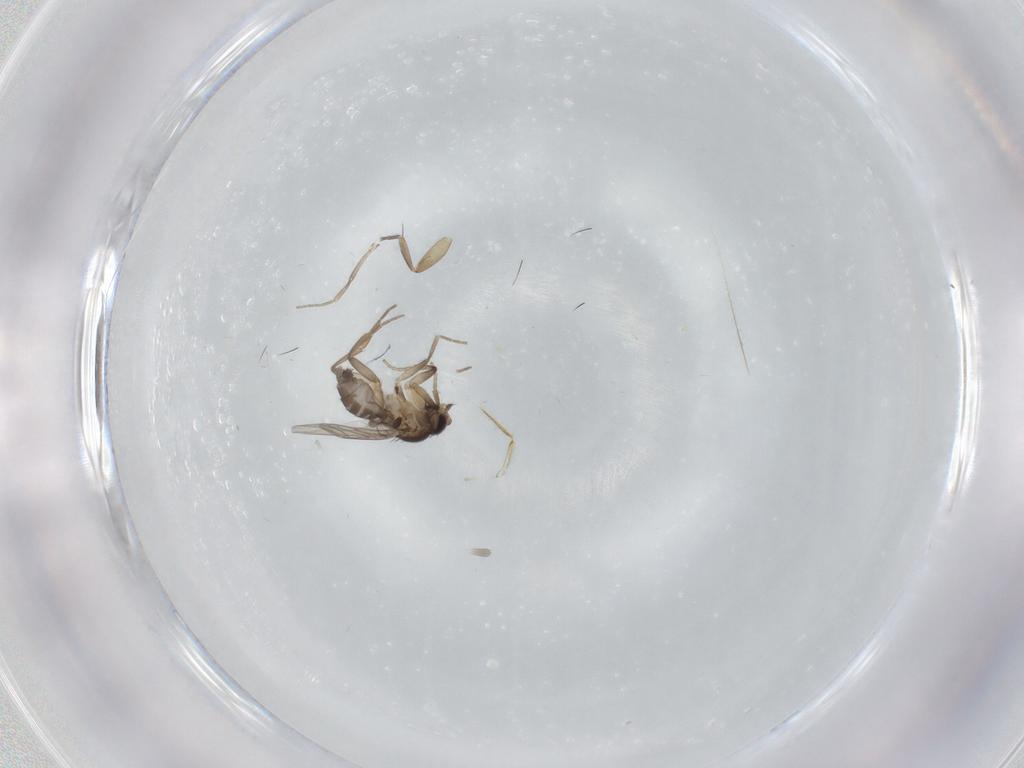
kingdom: Animalia
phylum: Arthropoda
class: Insecta
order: Diptera
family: Phoridae
